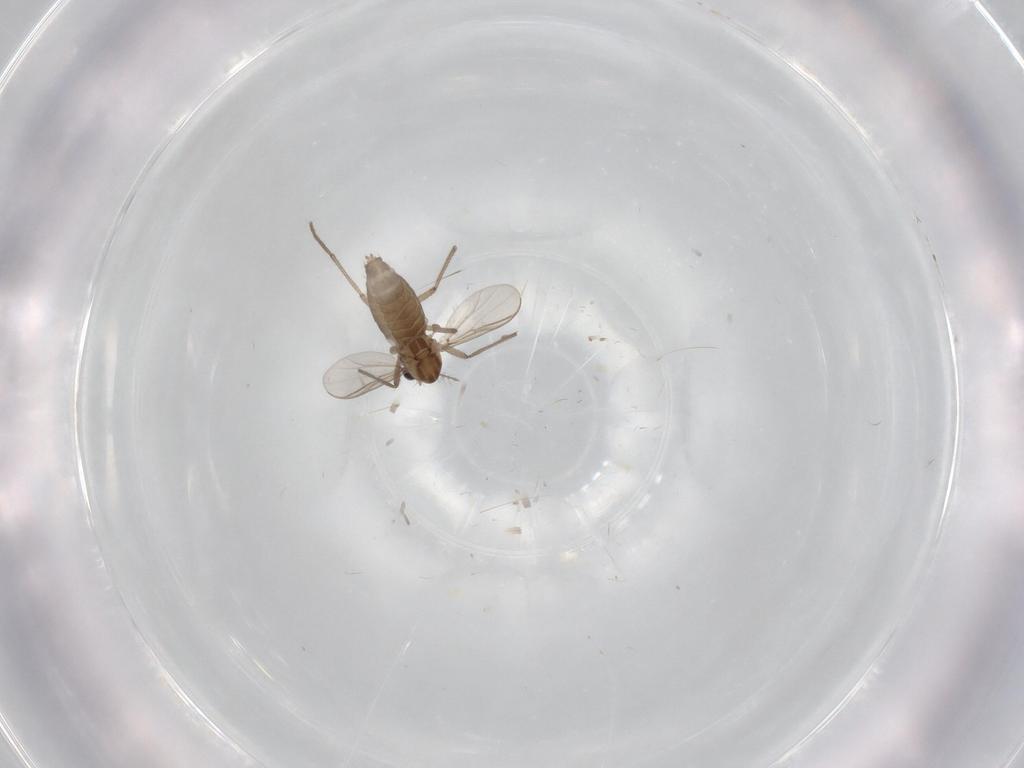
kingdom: Animalia
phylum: Arthropoda
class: Insecta
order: Diptera
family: Chironomidae
